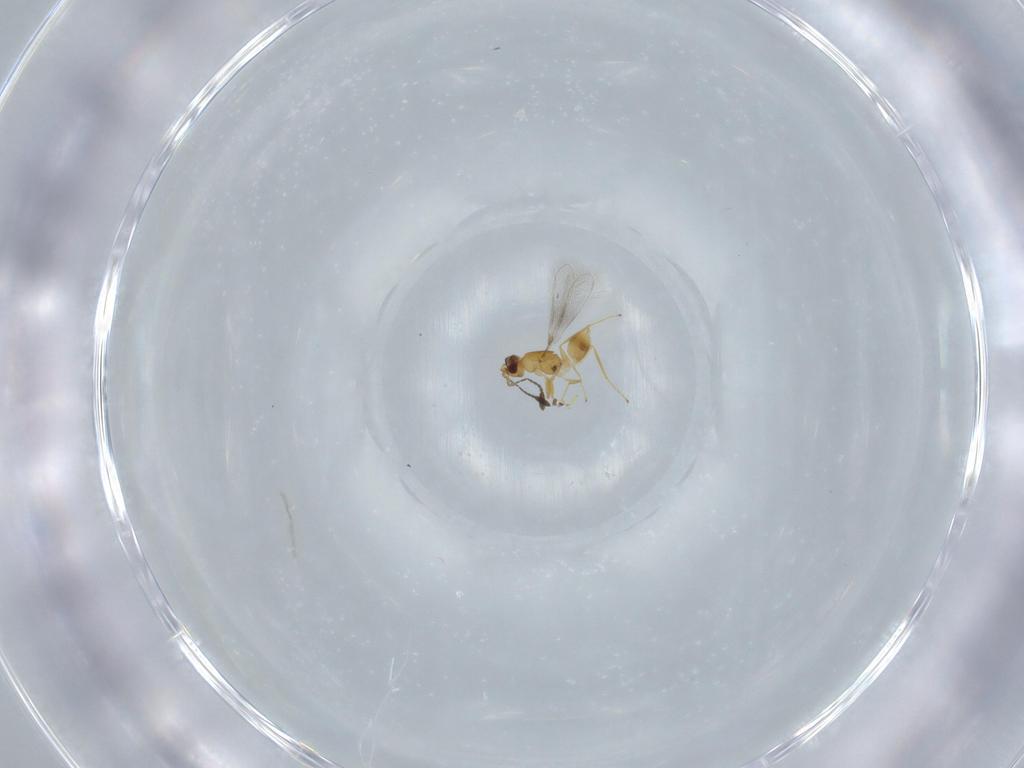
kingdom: Animalia
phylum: Arthropoda
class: Insecta
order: Hymenoptera
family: Mymaridae
